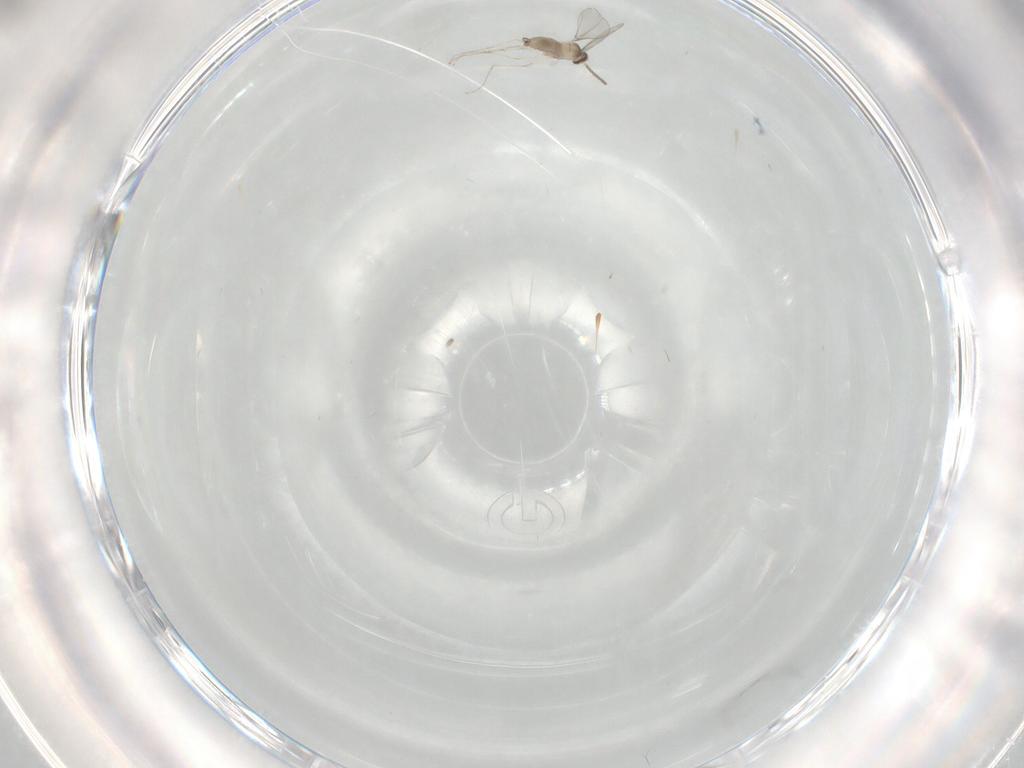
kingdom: Animalia
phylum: Arthropoda
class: Insecta
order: Diptera
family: Cecidomyiidae
